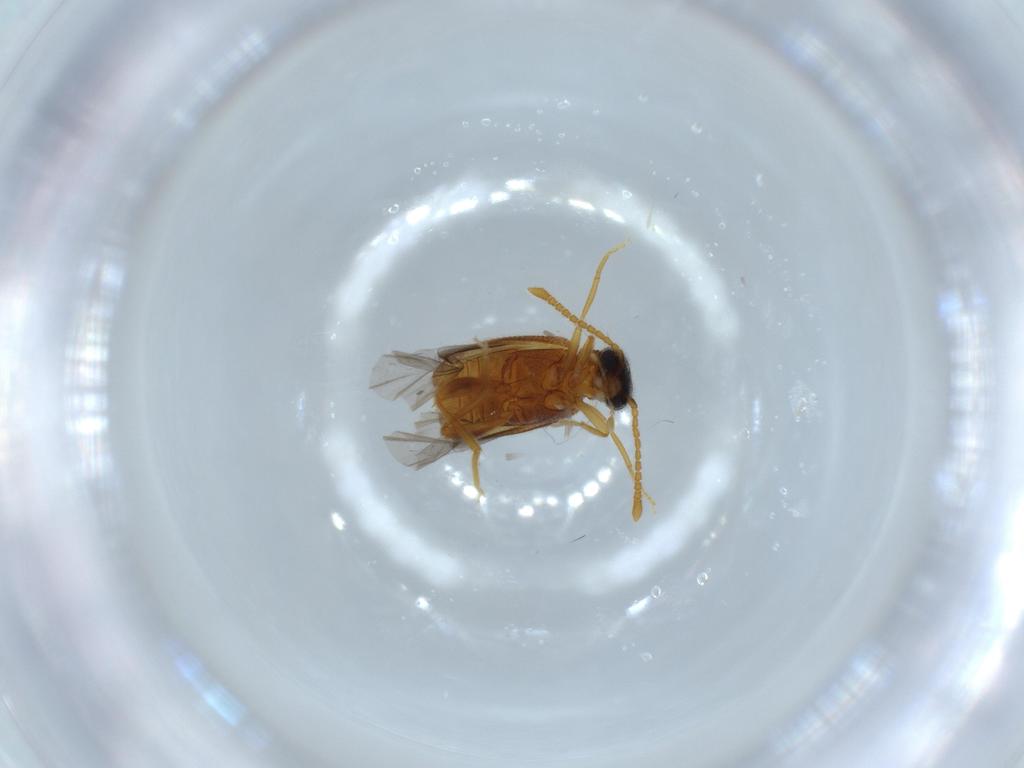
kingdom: Animalia
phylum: Arthropoda
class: Insecta
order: Coleoptera
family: Aderidae
